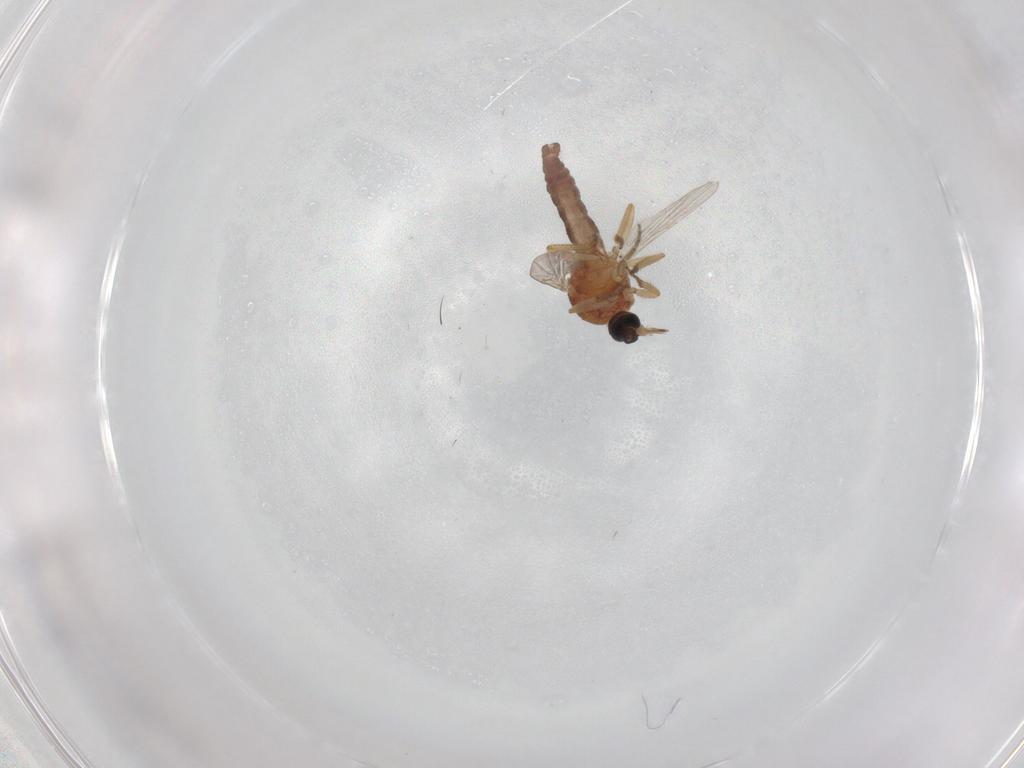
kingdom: Animalia
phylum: Arthropoda
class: Insecta
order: Diptera
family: Ceratopogonidae
